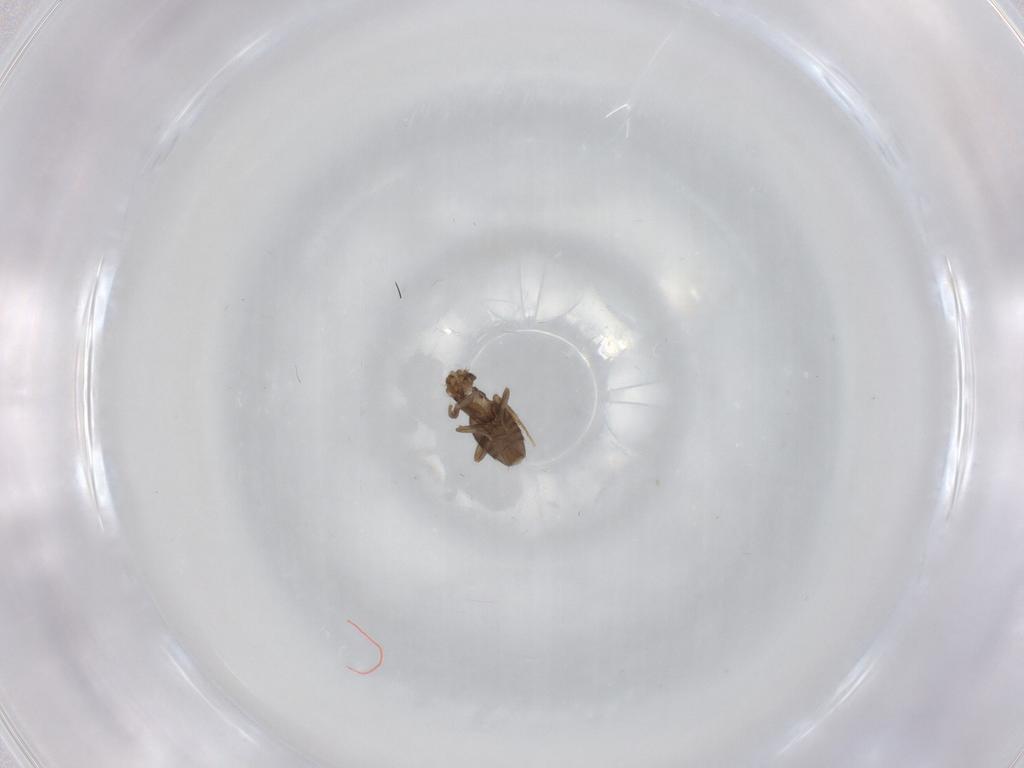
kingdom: Animalia
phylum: Arthropoda
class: Insecta
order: Diptera
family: Phoridae
